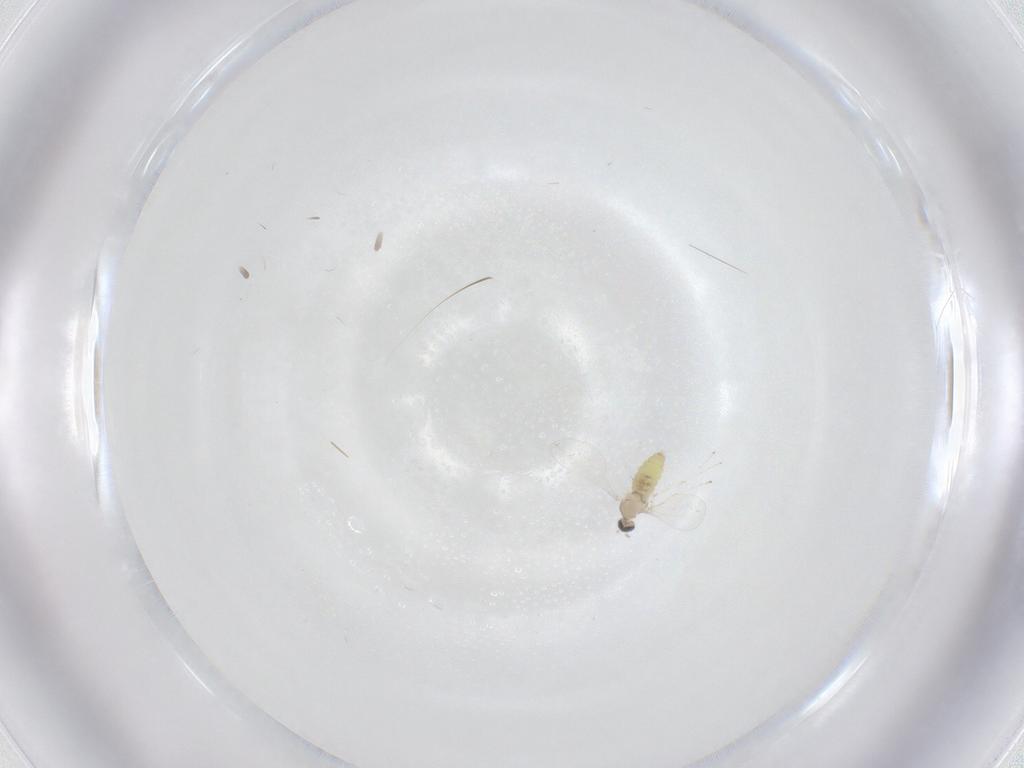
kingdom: Animalia
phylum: Arthropoda
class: Insecta
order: Diptera
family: Cecidomyiidae
